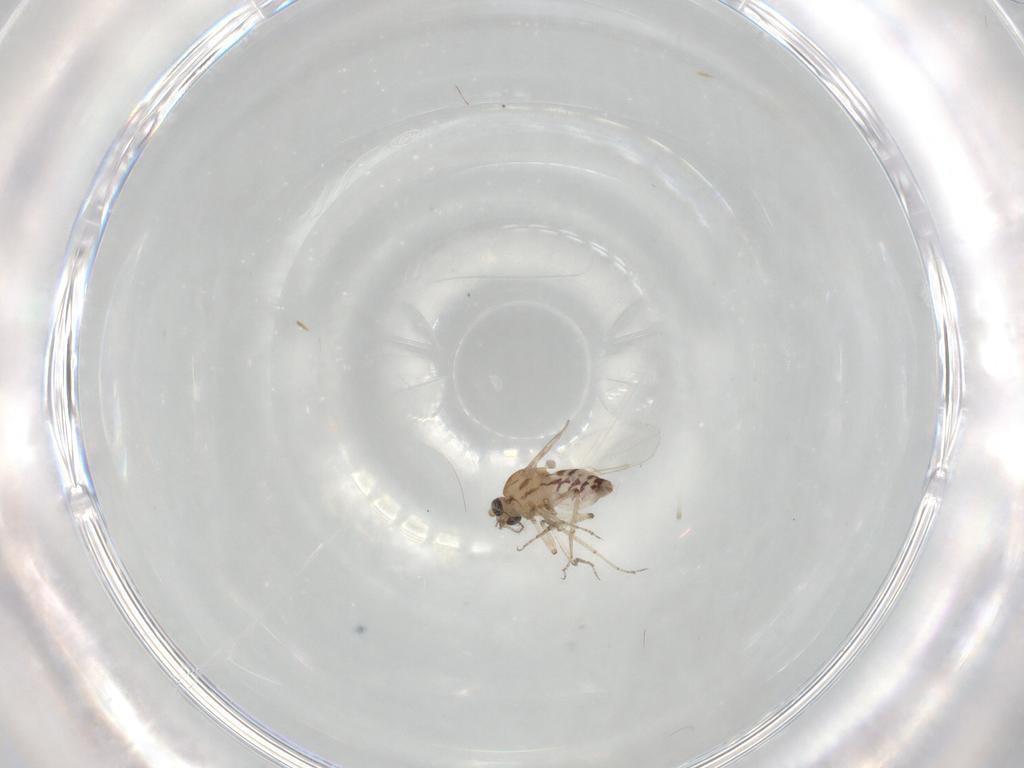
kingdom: Animalia
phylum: Arthropoda
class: Insecta
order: Diptera
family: Ceratopogonidae
